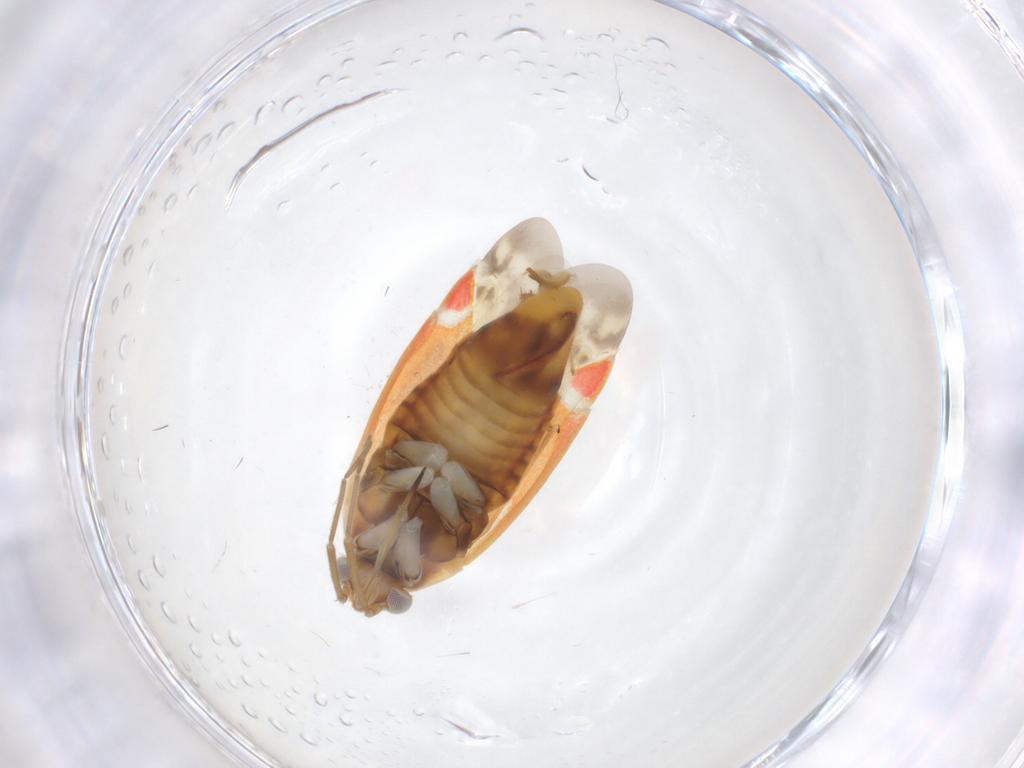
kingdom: Animalia
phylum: Arthropoda
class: Insecta
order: Hemiptera
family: Miridae
